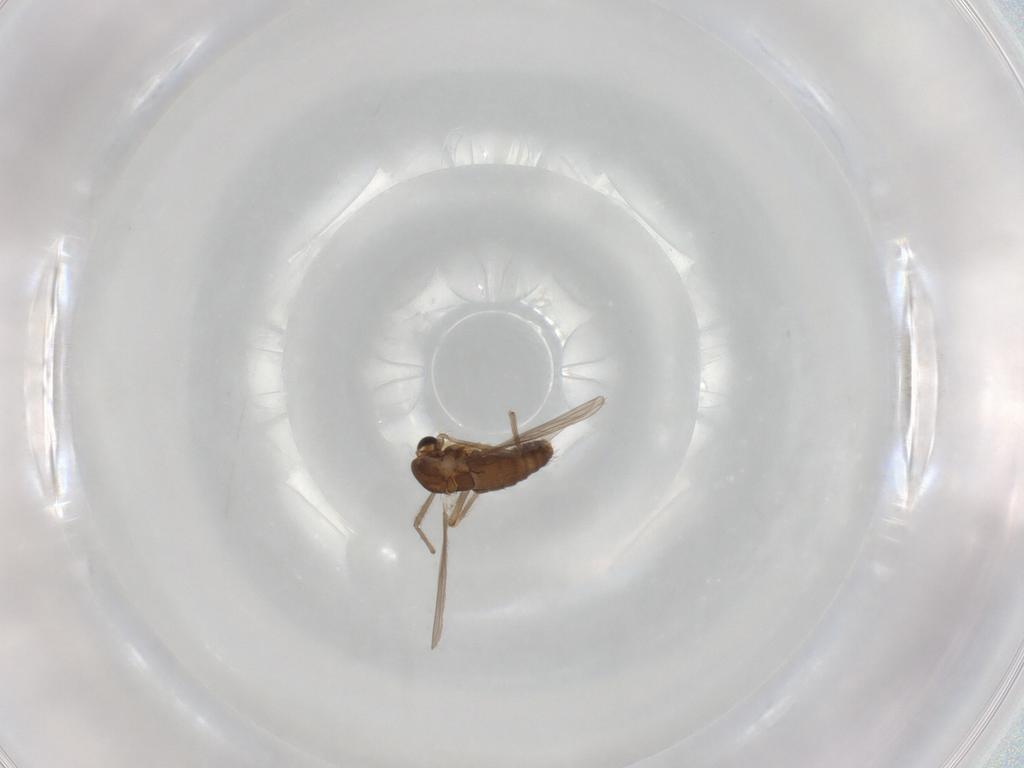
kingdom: Animalia
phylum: Arthropoda
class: Insecta
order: Diptera
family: Chironomidae
